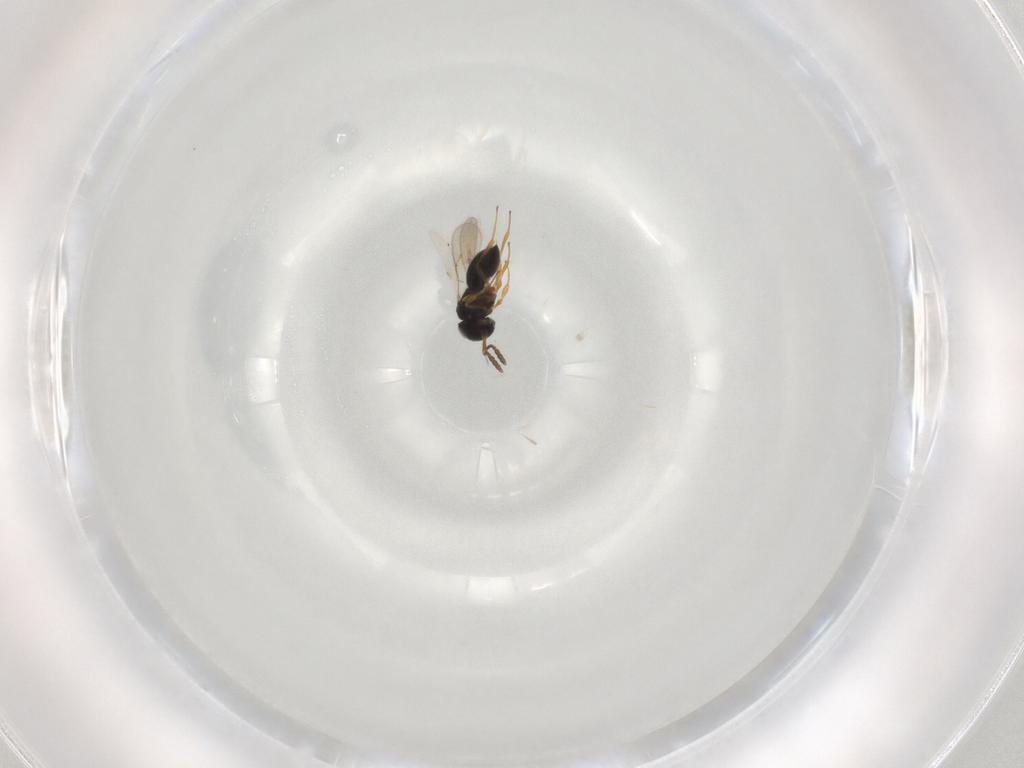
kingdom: Animalia
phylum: Arthropoda
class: Insecta
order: Hymenoptera
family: Scelionidae
